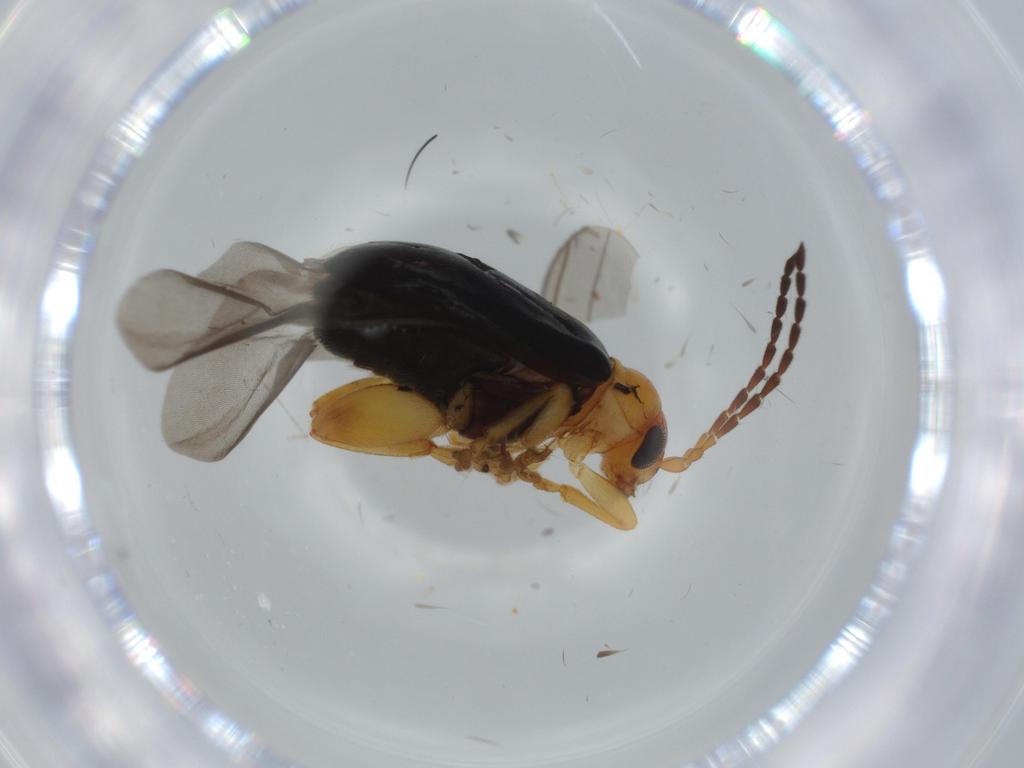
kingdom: Animalia
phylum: Arthropoda
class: Insecta
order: Coleoptera
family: Chrysomelidae
